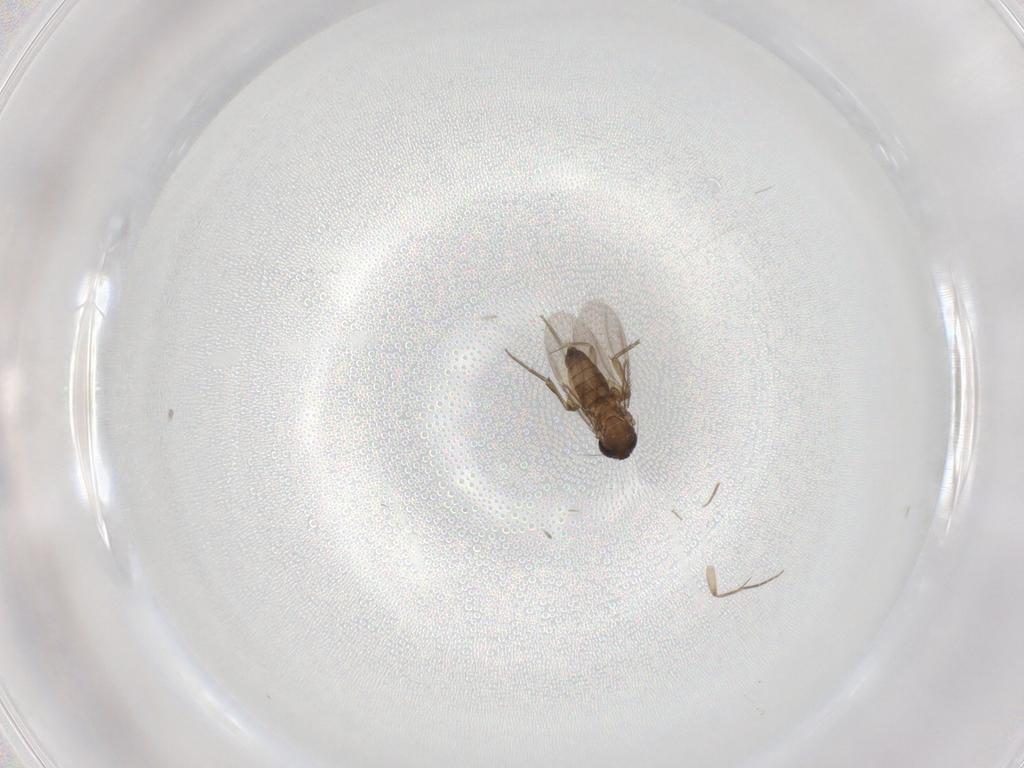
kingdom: Animalia
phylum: Arthropoda
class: Insecta
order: Diptera
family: Phoridae
